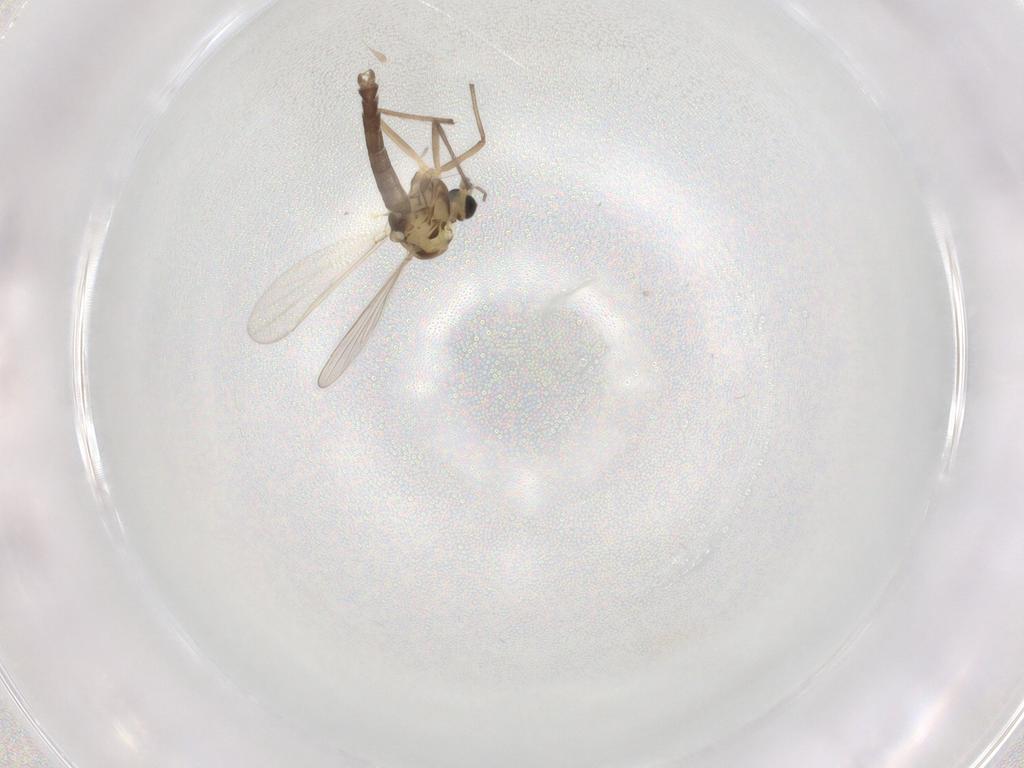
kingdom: Animalia
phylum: Arthropoda
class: Insecta
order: Diptera
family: Chironomidae
